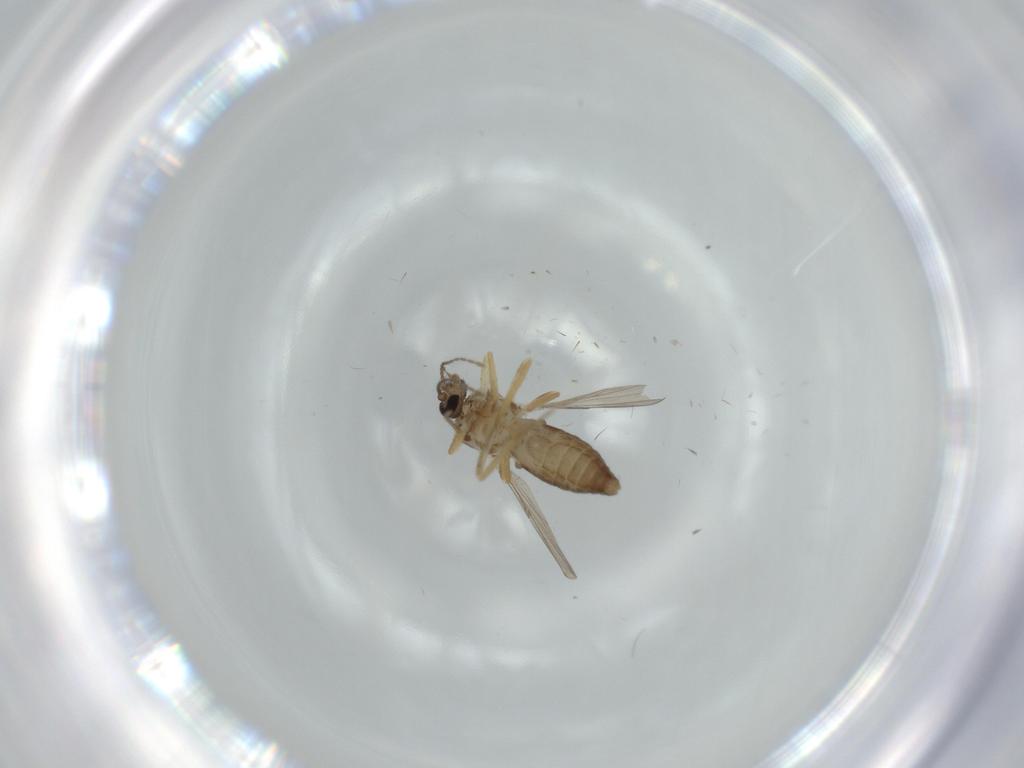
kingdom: Animalia
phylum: Arthropoda
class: Insecta
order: Diptera
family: Ceratopogonidae
